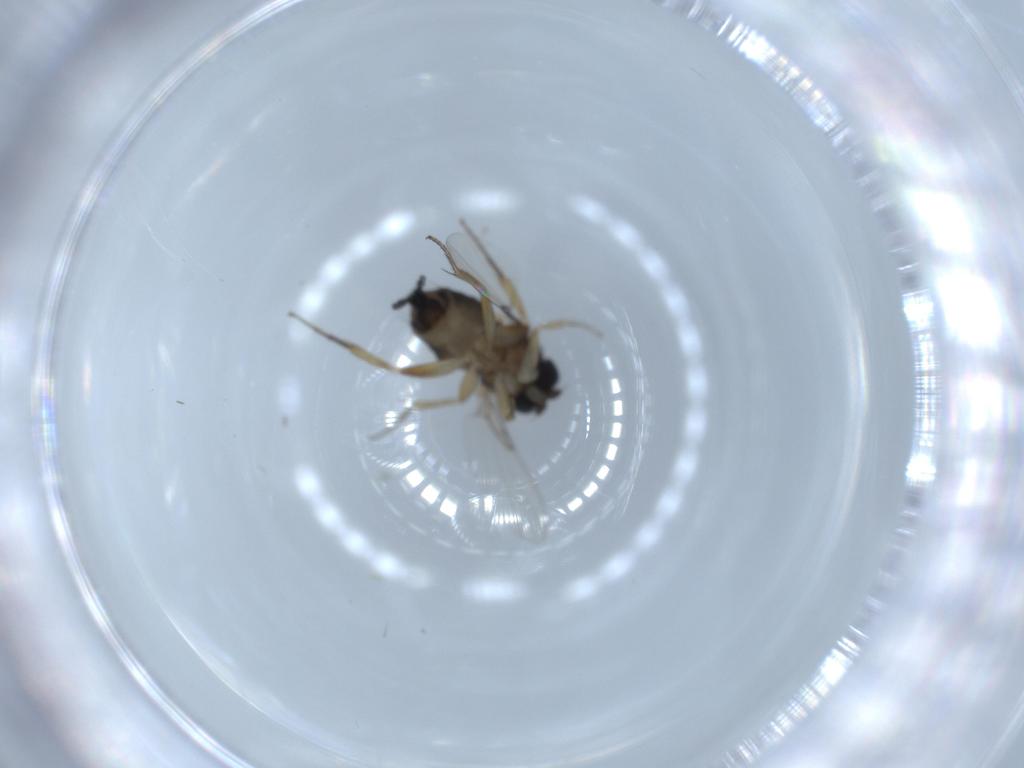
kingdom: Animalia
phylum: Arthropoda
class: Insecta
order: Diptera
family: Phoridae
